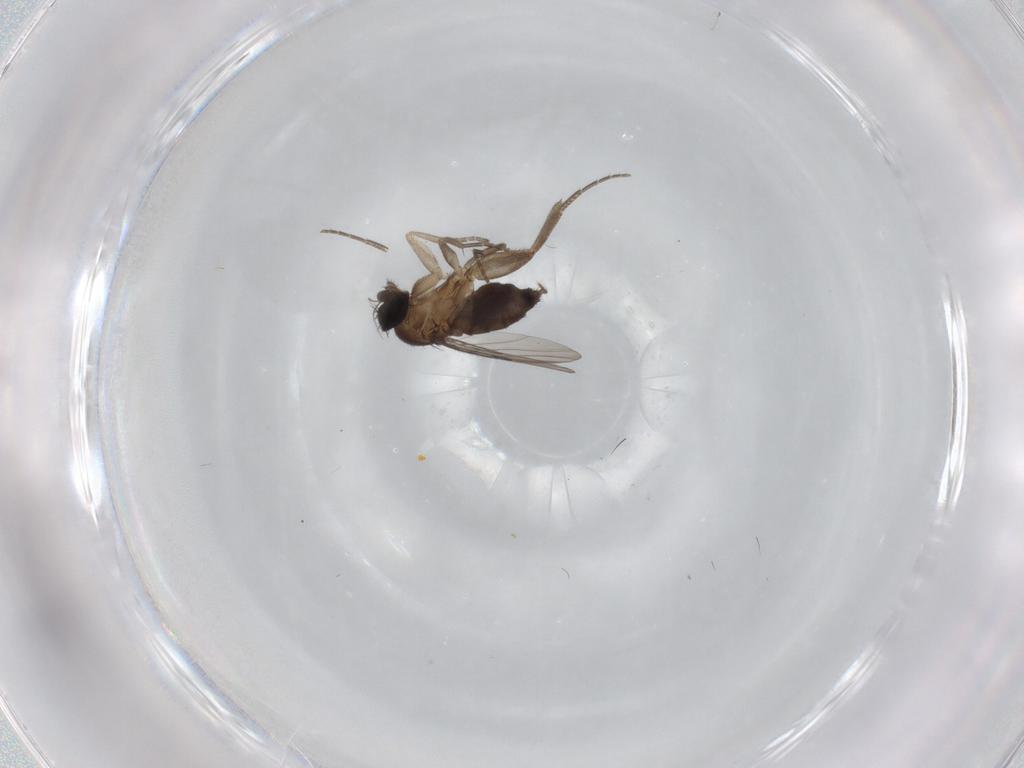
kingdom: Animalia
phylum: Arthropoda
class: Insecta
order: Diptera
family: Phoridae
